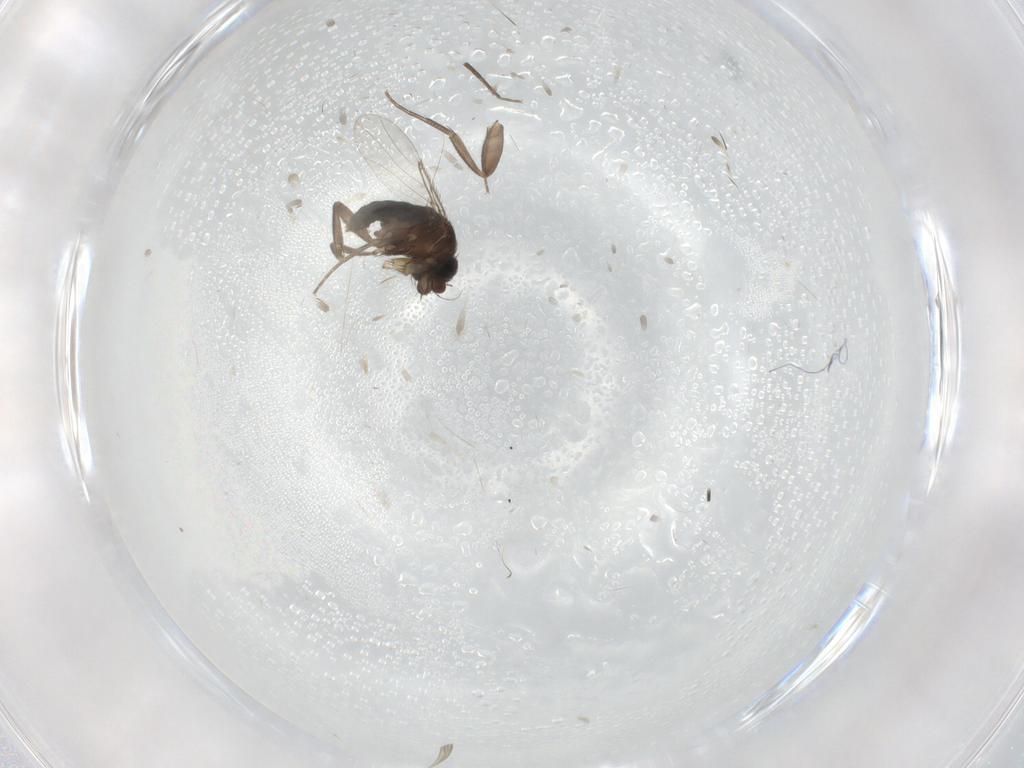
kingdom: Animalia
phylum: Arthropoda
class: Insecta
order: Diptera
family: Phoridae
